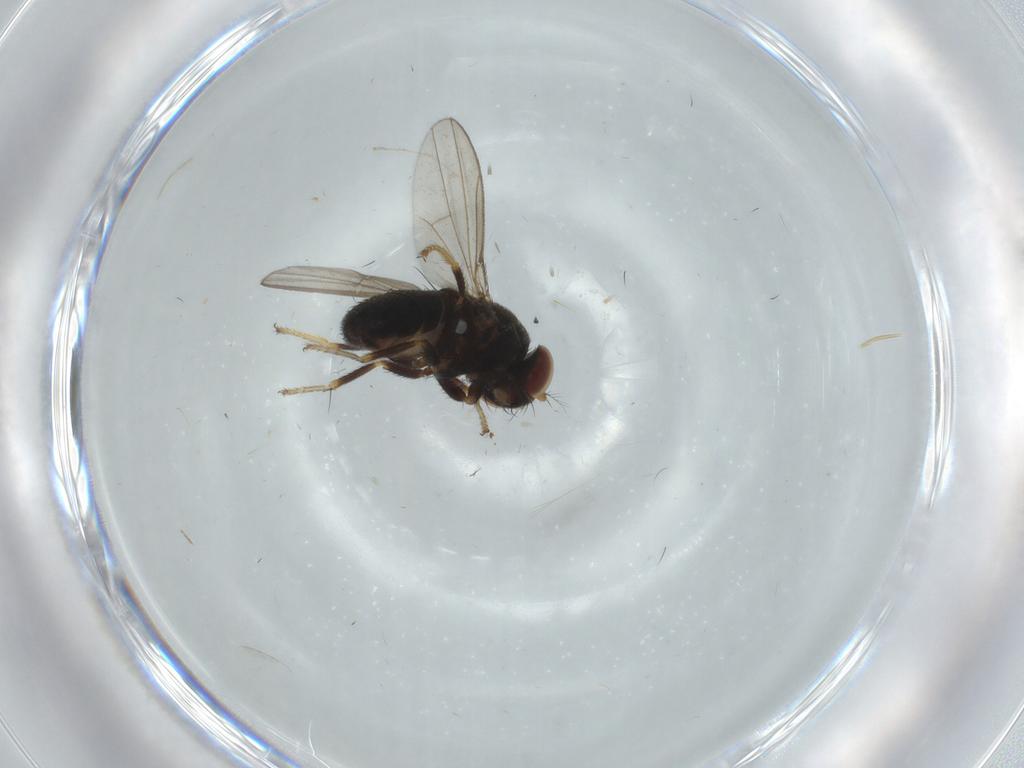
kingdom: Animalia
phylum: Arthropoda
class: Insecta
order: Diptera
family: Cecidomyiidae
